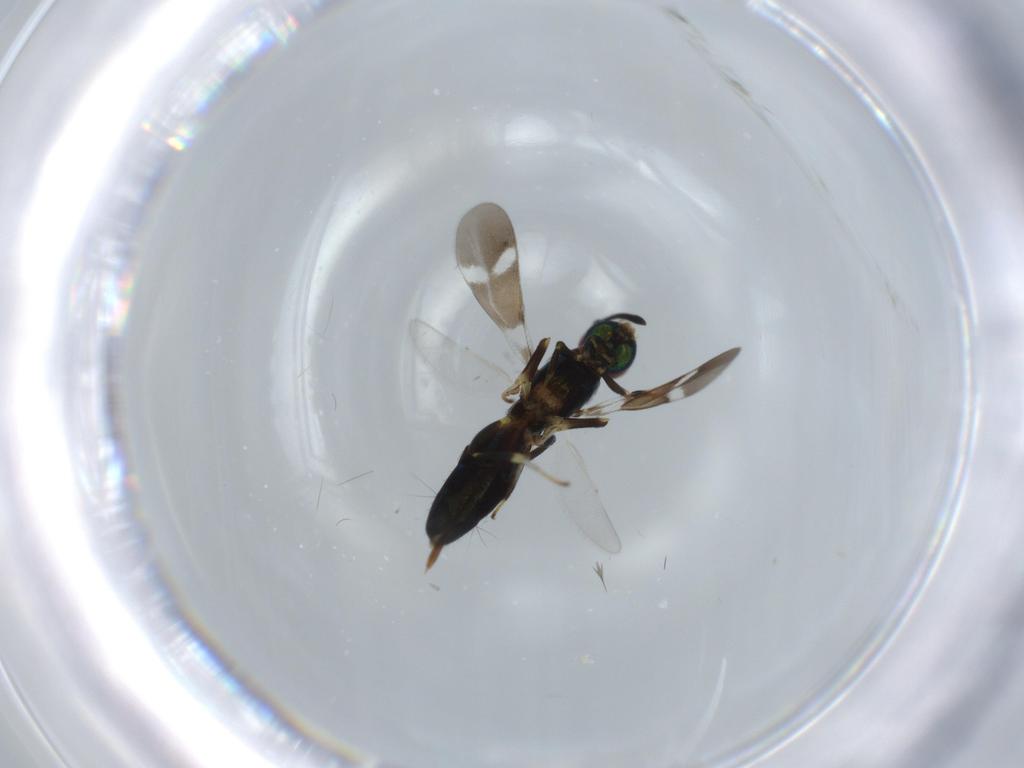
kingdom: Animalia
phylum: Arthropoda
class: Insecta
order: Hymenoptera
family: Eupelmidae
